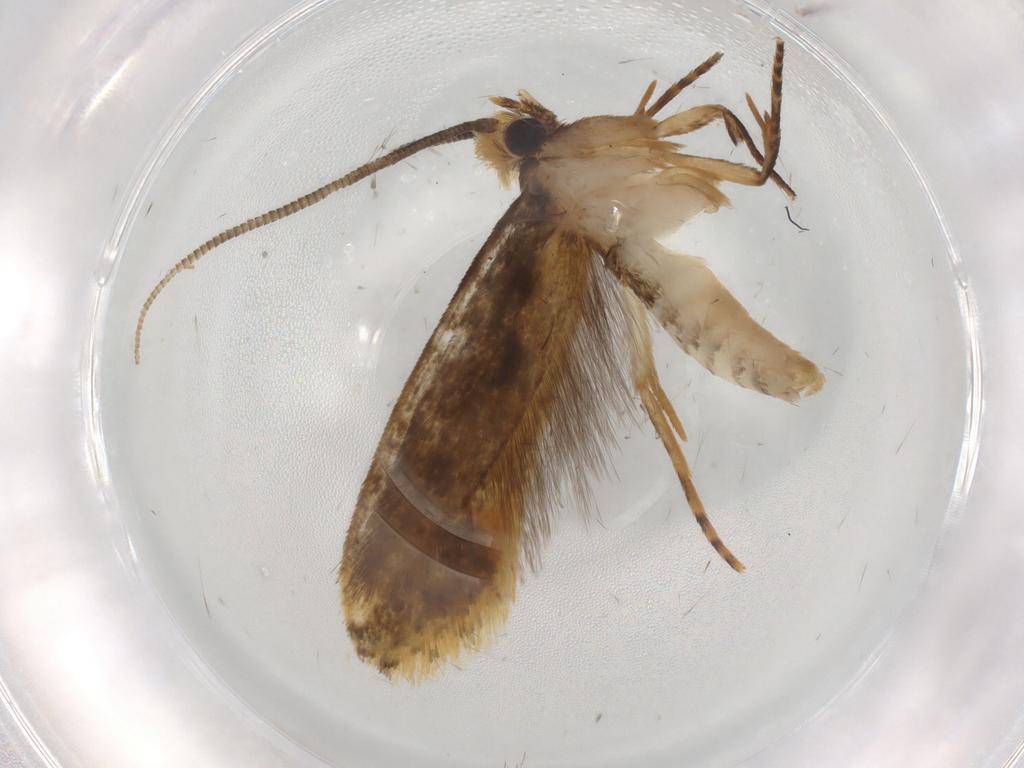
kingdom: Animalia
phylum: Arthropoda
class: Insecta
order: Lepidoptera
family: Tineidae
